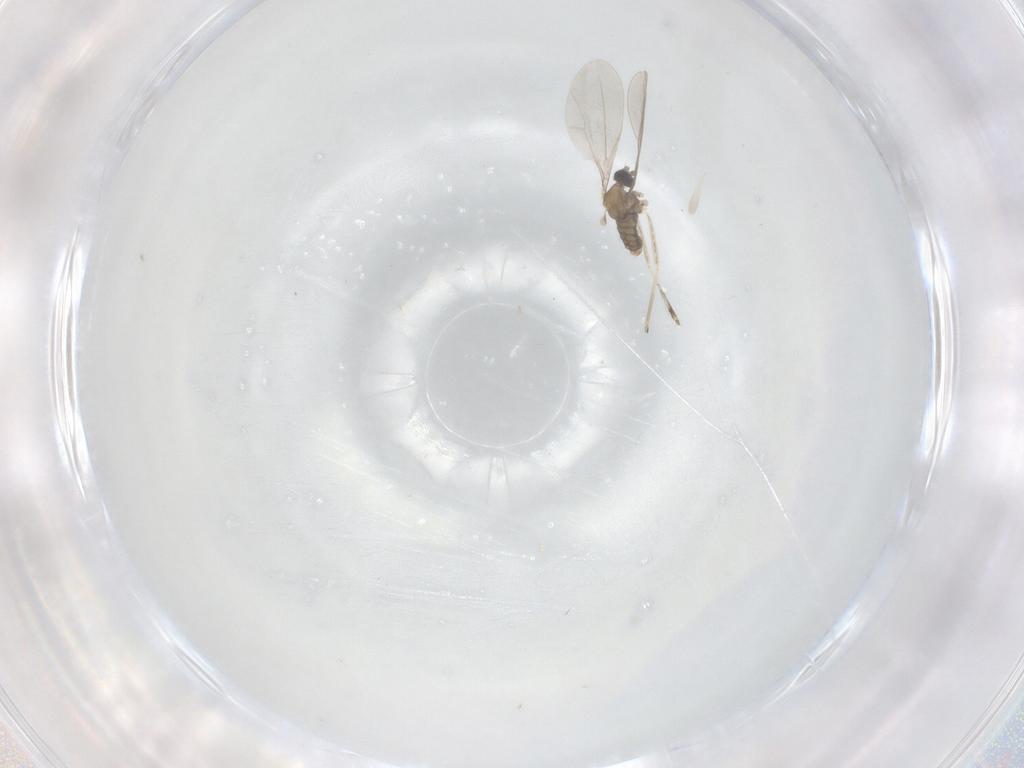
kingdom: Animalia
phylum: Arthropoda
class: Insecta
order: Diptera
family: Cecidomyiidae
